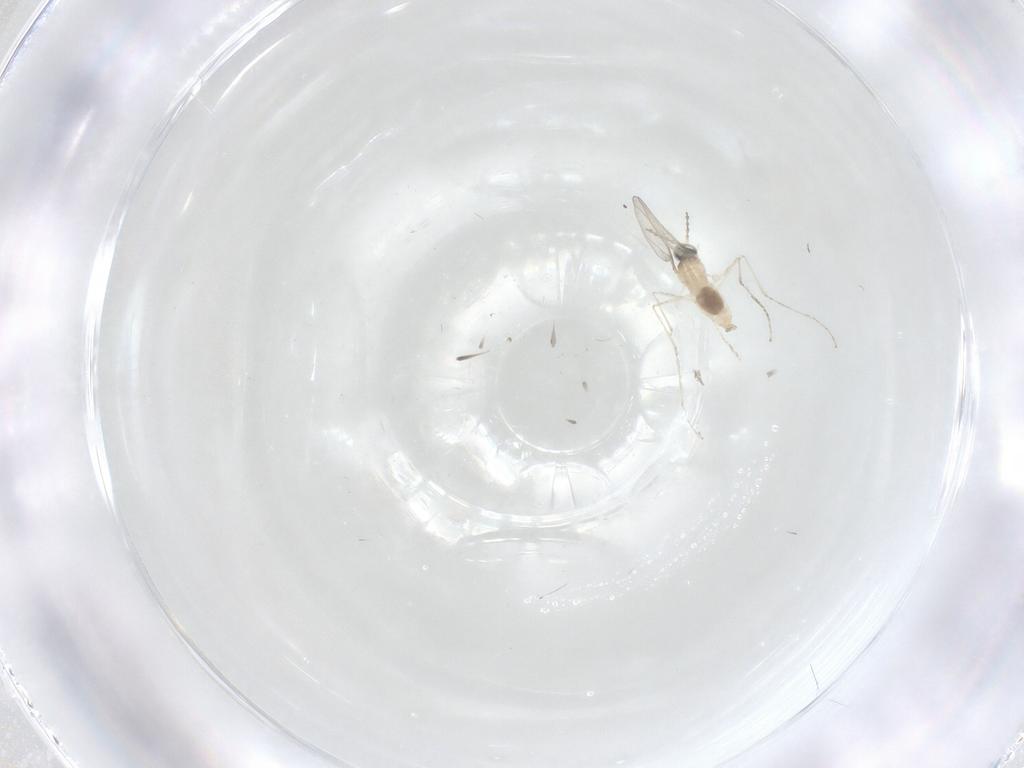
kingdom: Animalia
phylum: Arthropoda
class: Insecta
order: Diptera
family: Cecidomyiidae
